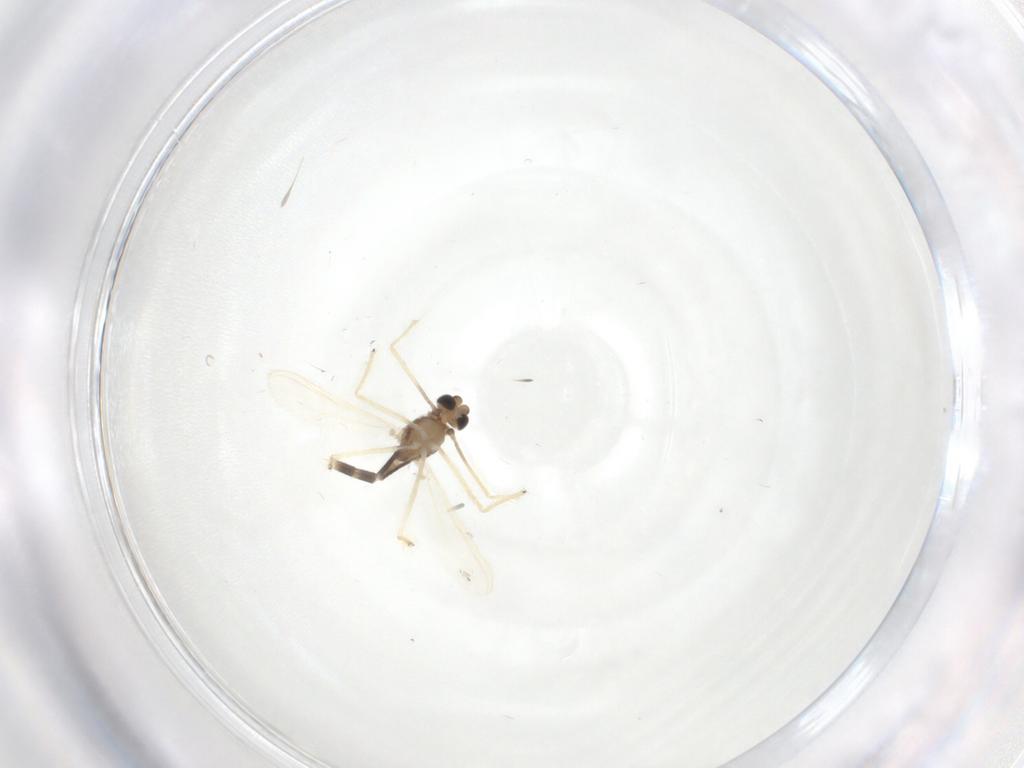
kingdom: Animalia
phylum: Arthropoda
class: Insecta
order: Diptera
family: Chironomidae
